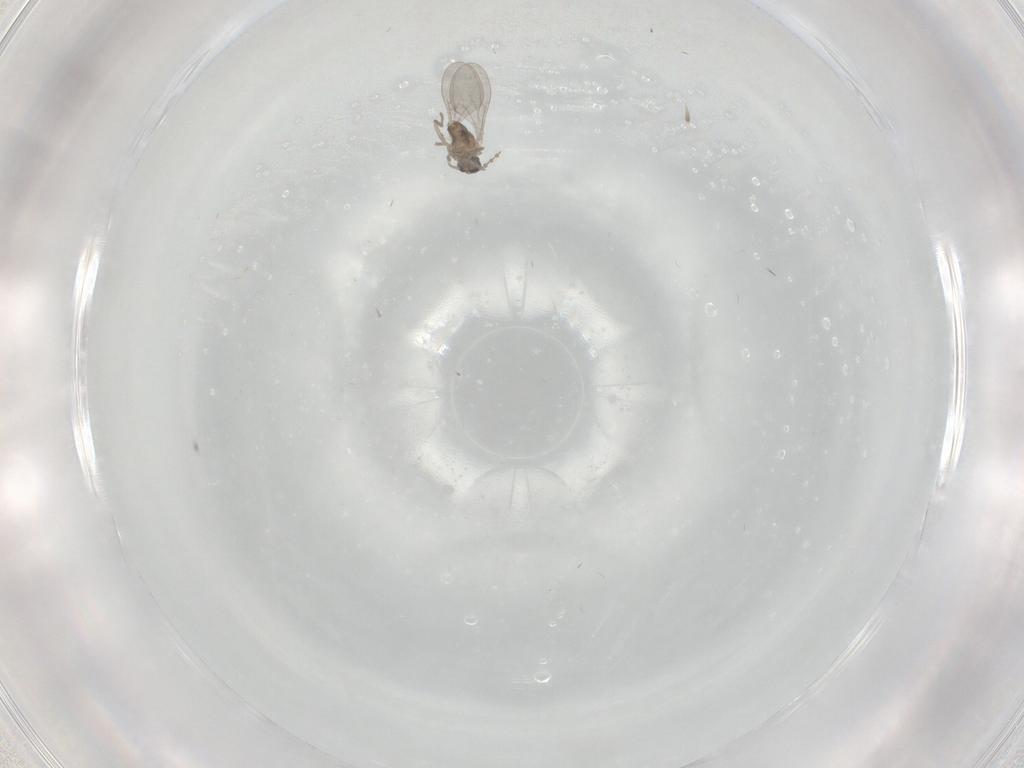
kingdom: Animalia
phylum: Arthropoda
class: Insecta
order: Diptera
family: Cecidomyiidae
